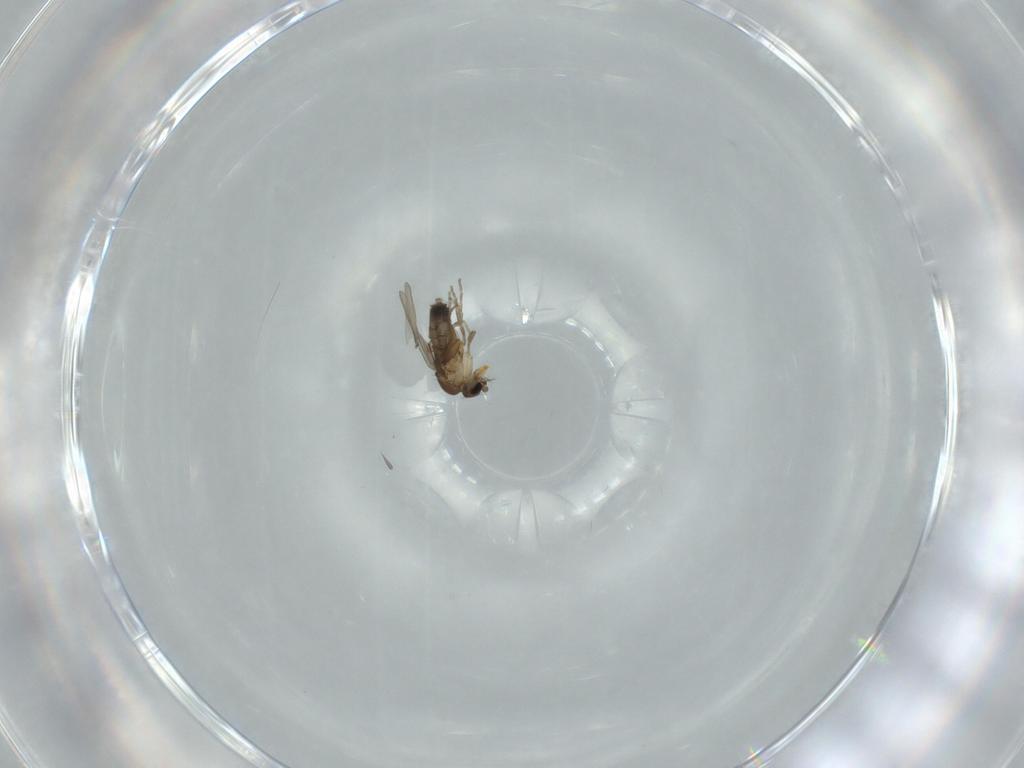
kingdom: Animalia
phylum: Arthropoda
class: Insecta
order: Diptera
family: Phoridae
